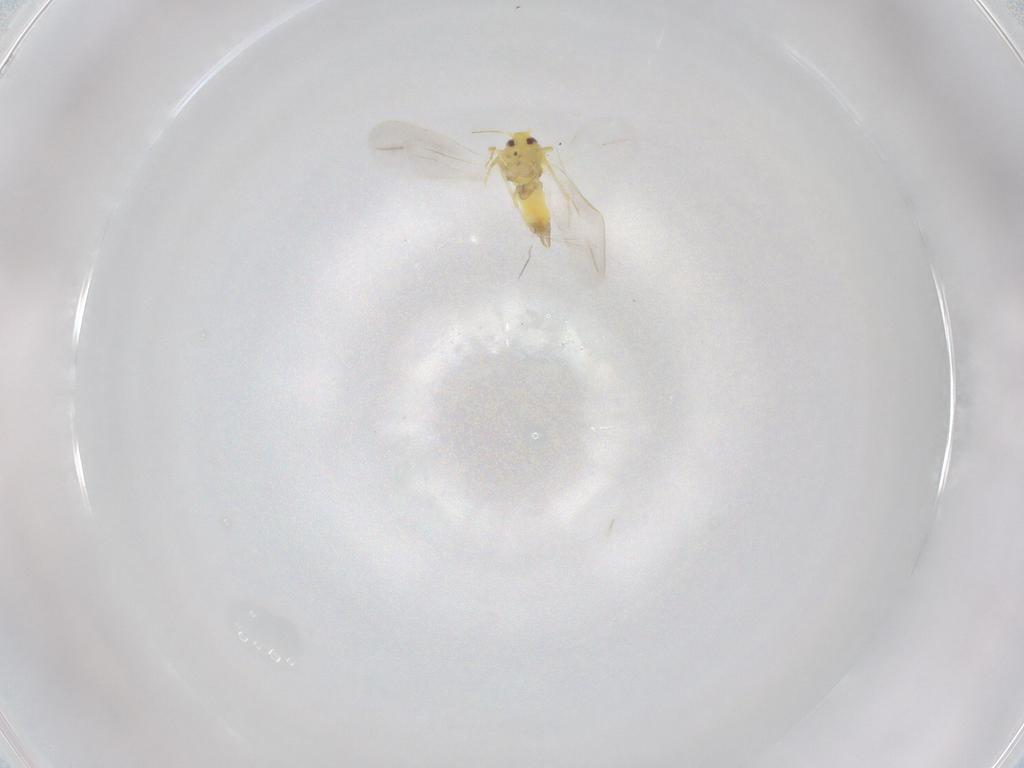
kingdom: Animalia
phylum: Arthropoda
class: Insecta
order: Hemiptera
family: Aleyrodidae
